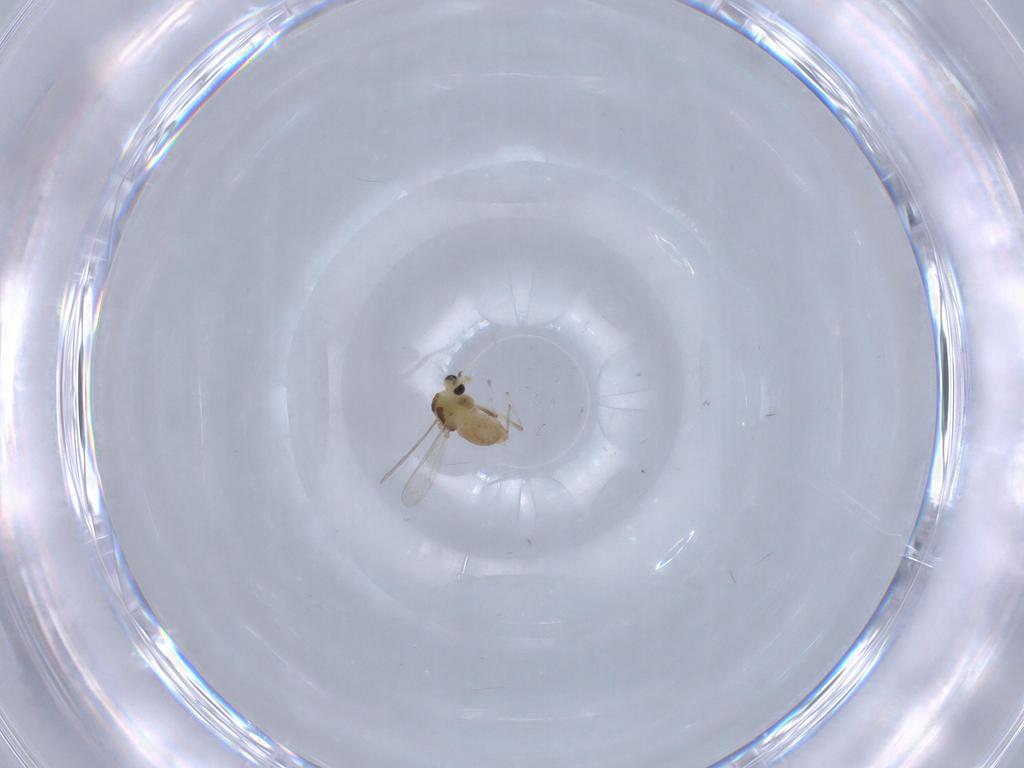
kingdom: Animalia
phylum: Arthropoda
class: Insecta
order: Diptera
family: Chironomidae
